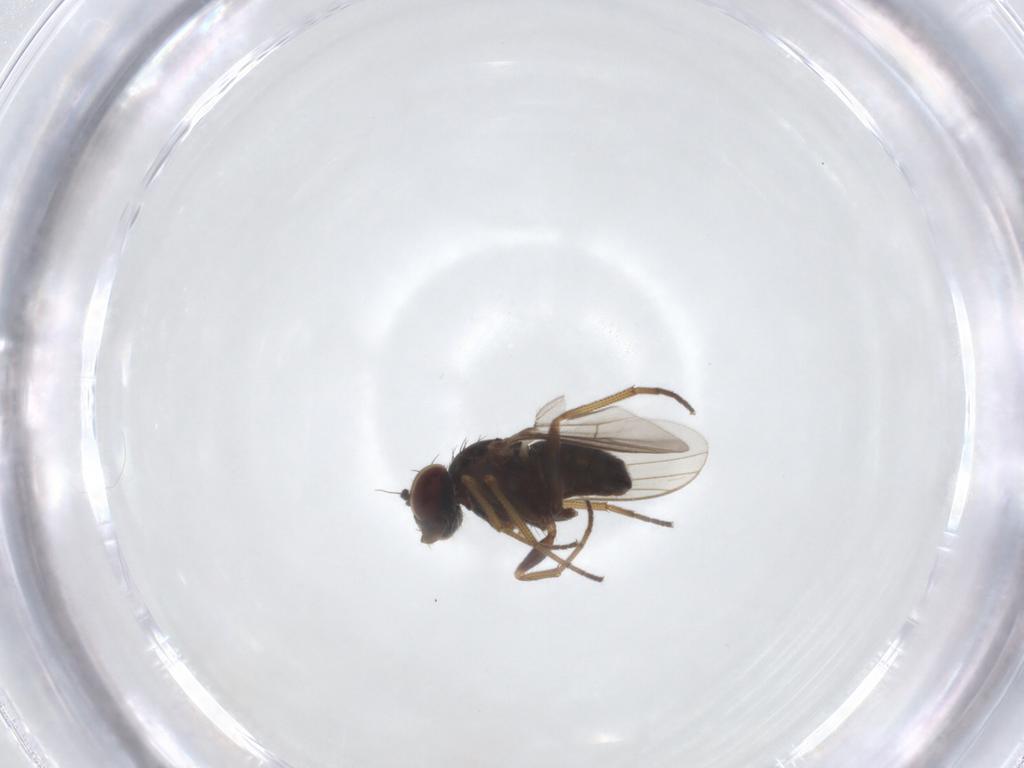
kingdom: Animalia
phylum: Arthropoda
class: Insecta
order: Diptera
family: Dolichopodidae
